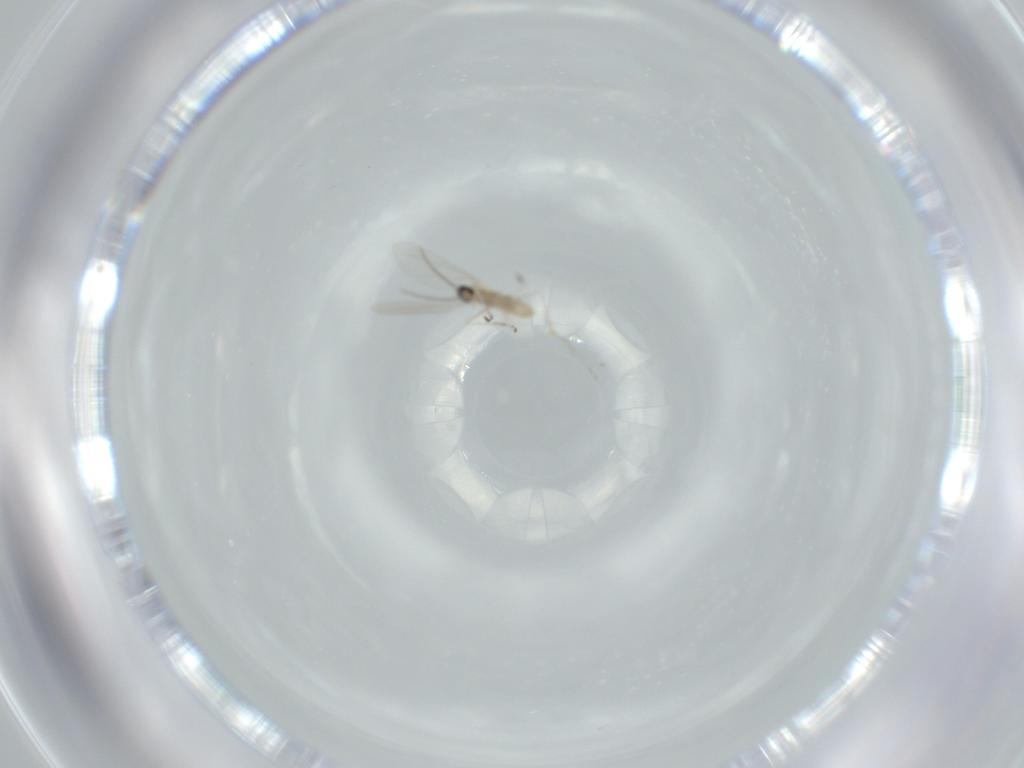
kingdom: Animalia
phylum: Arthropoda
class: Insecta
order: Diptera
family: Cecidomyiidae
